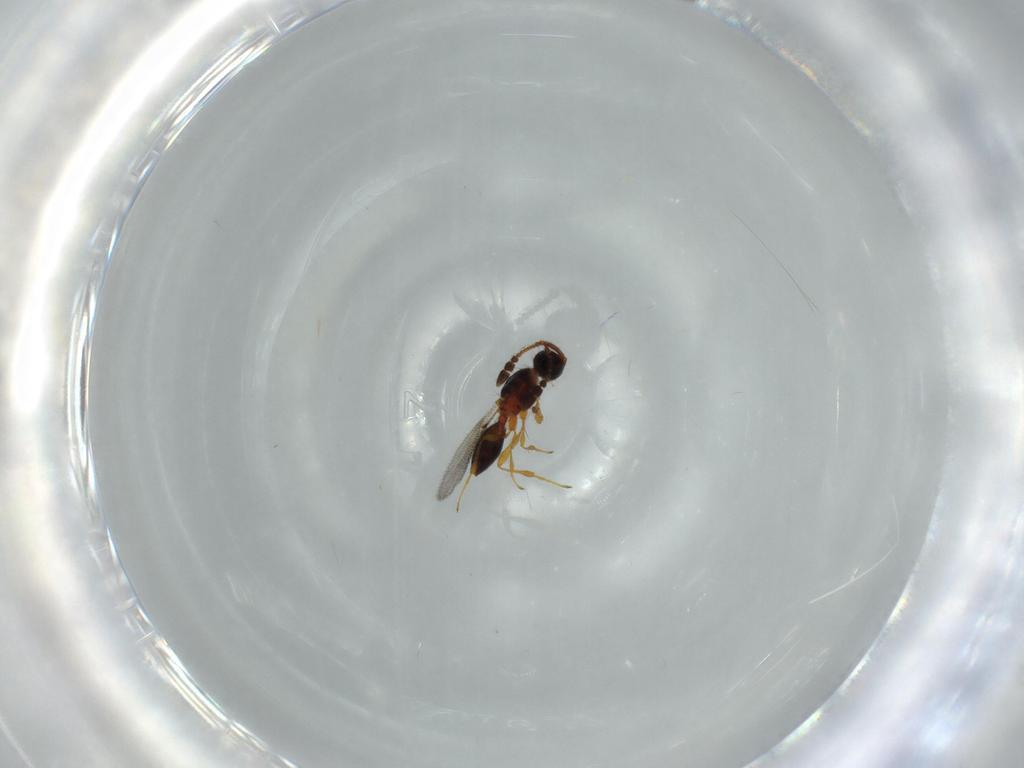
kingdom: Animalia
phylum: Arthropoda
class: Insecta
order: Hymenoptera
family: Diapriidae
